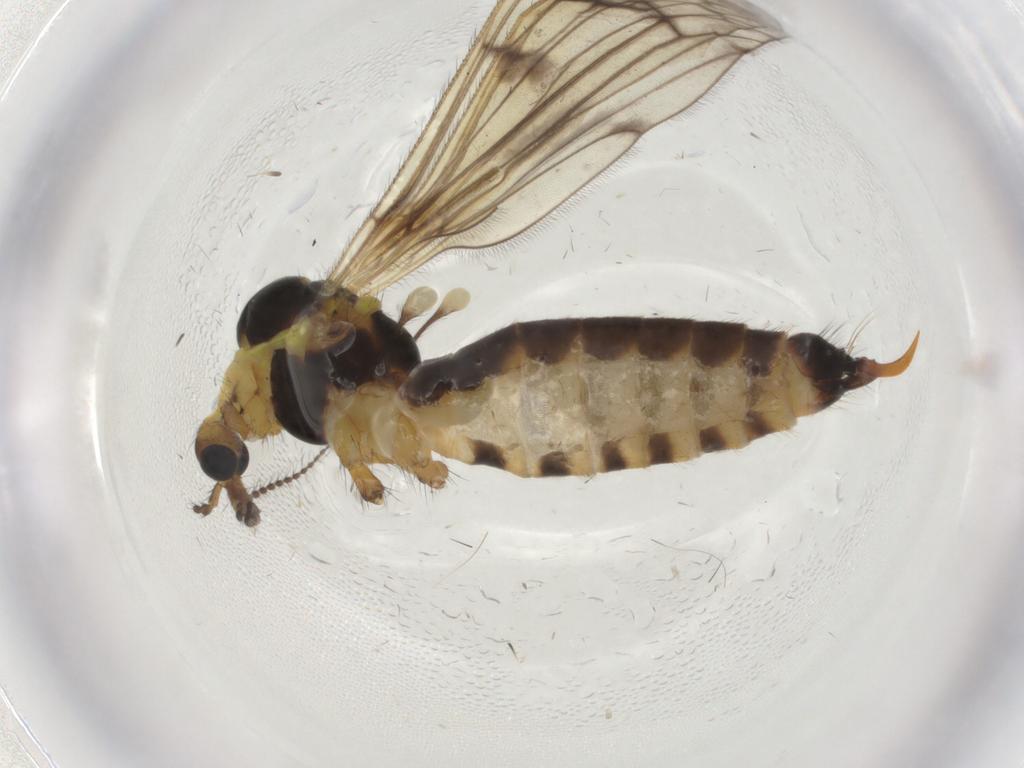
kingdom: Animalia
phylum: Arthropoda
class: Insecta
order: Diptera
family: Limoniidae
